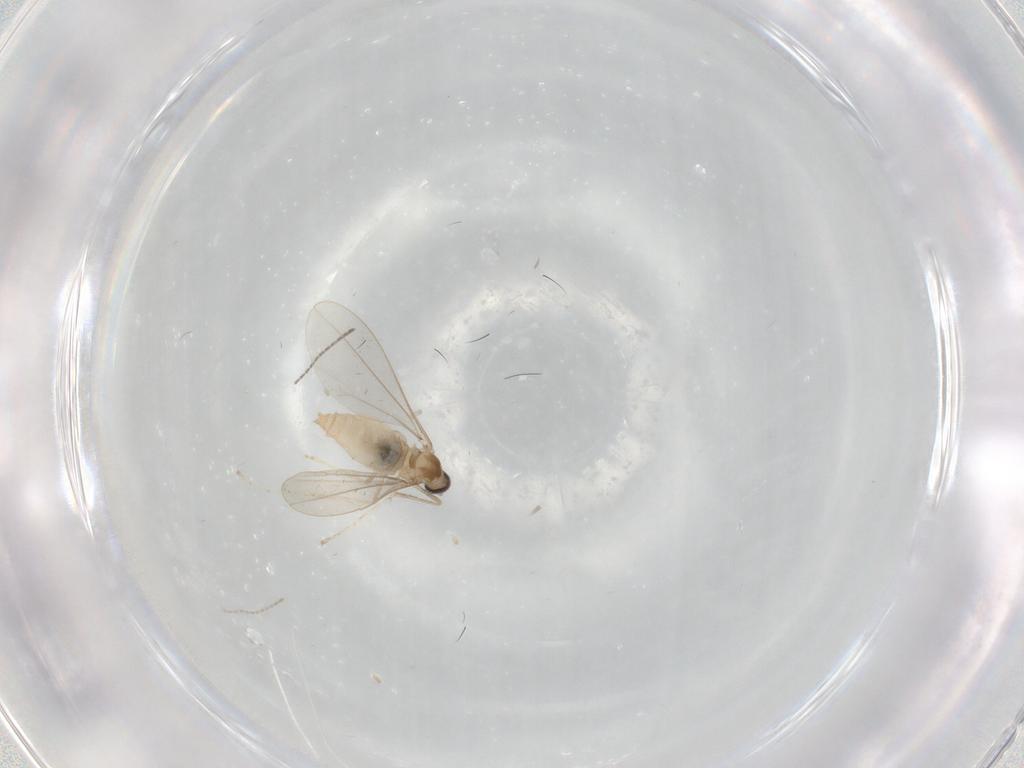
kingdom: Animalia
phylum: Arthropoda
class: Insecta
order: Diptera
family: Sciaridae
